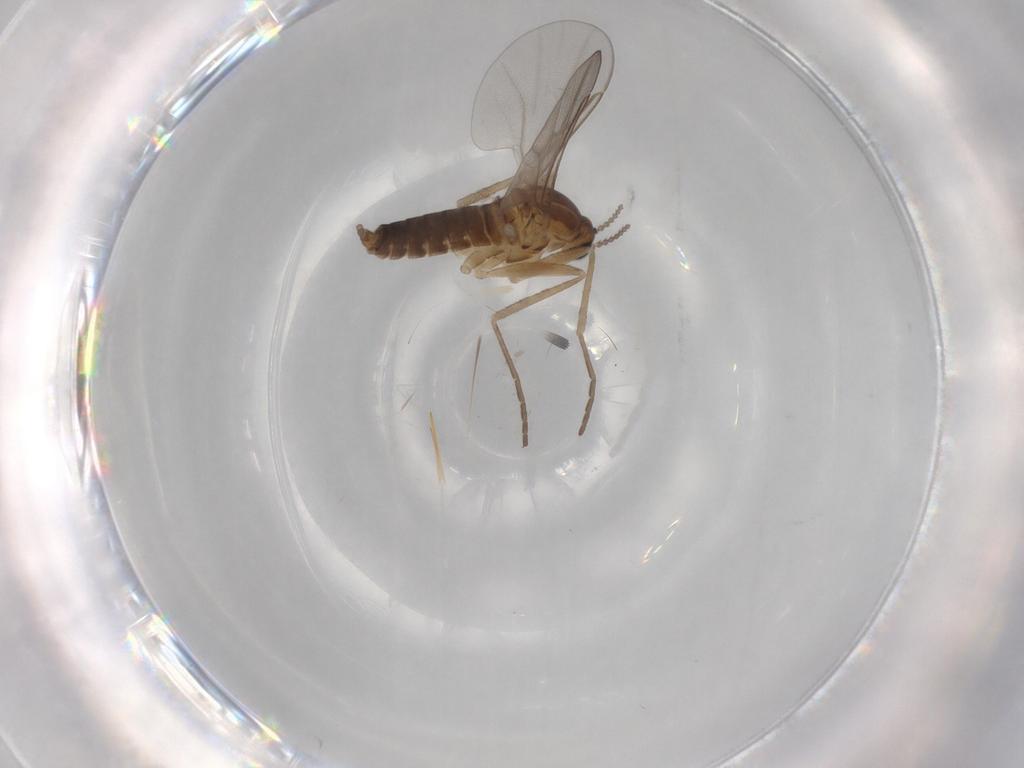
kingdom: Animalia
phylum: Arthropoda
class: Insecta
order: Diptera
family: Cecidomyiidae
